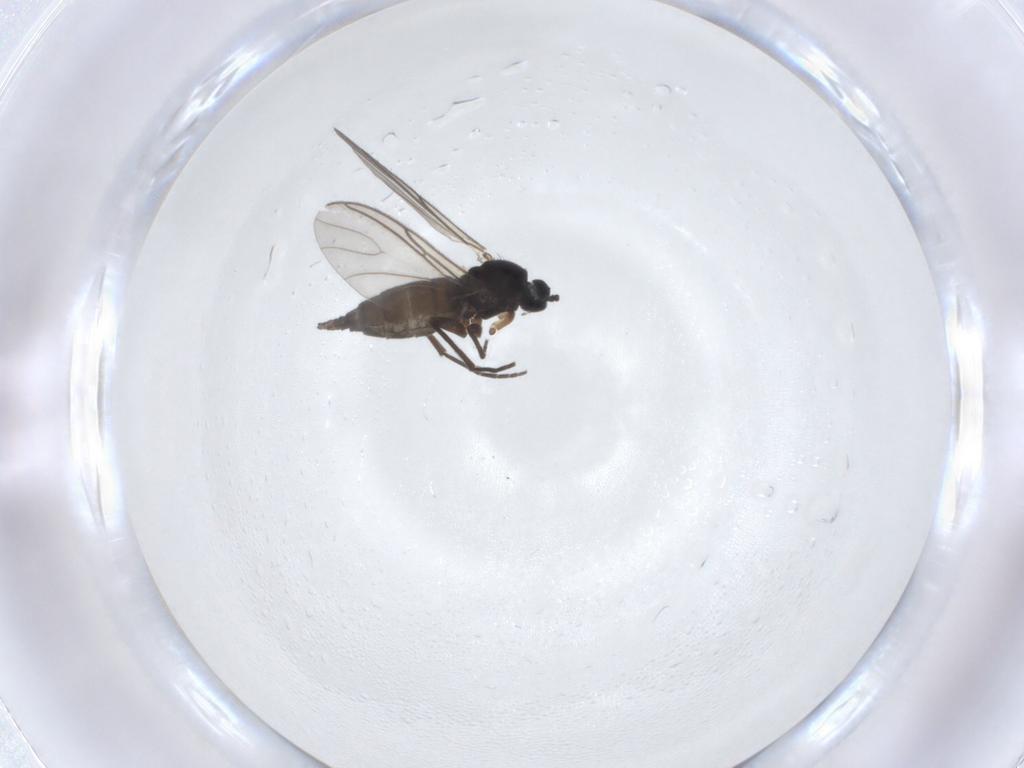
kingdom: Animalia
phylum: Arthropoda
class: Insecta
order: Diptera
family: Sciaridae
